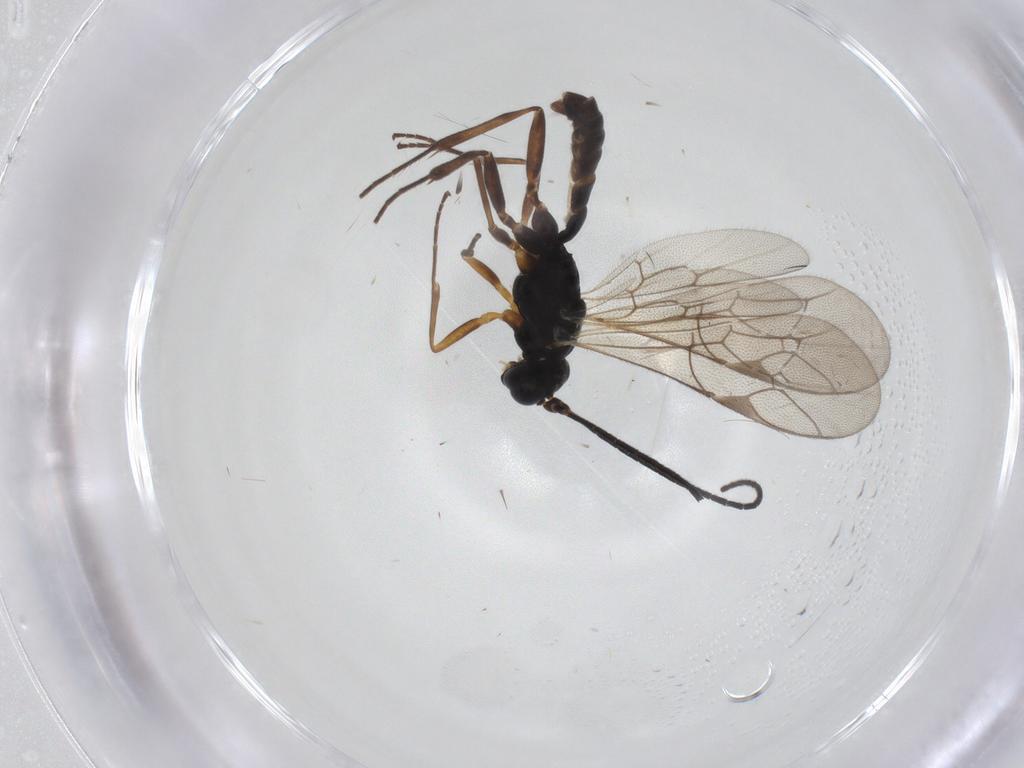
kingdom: Animalia
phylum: Arthropoda
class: Insecta
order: Hymenoptera
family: Ichneumonidae
